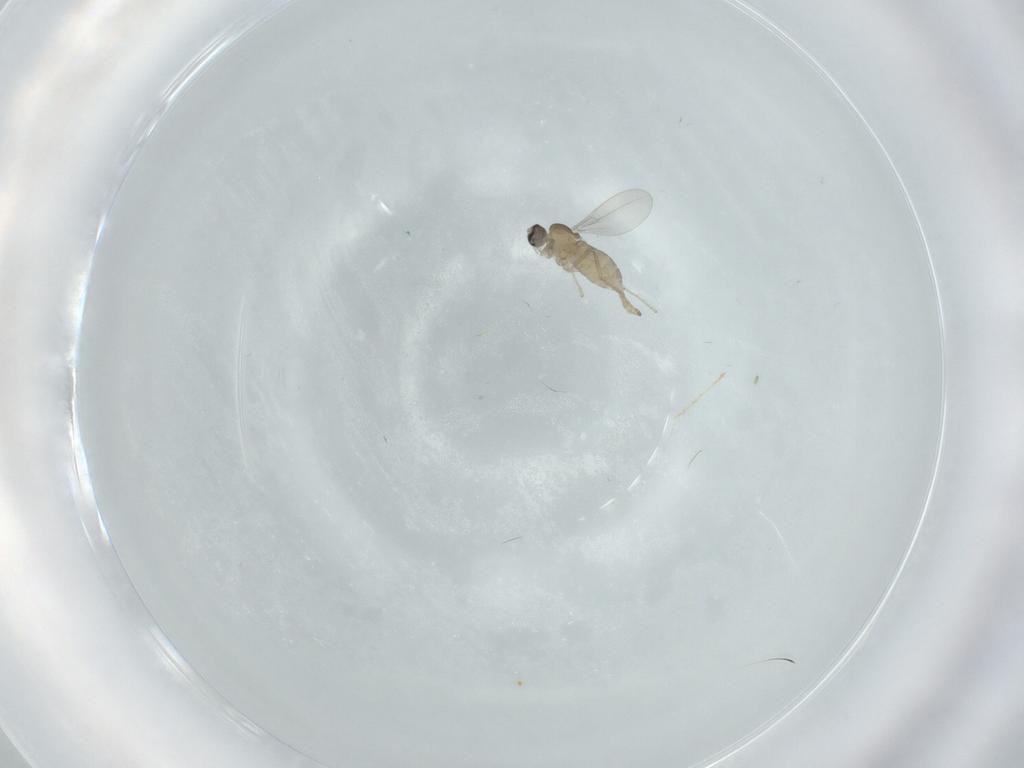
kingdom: Animalia
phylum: Arthropoda
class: Insecta
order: Diptera
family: Cecidomyiidae
